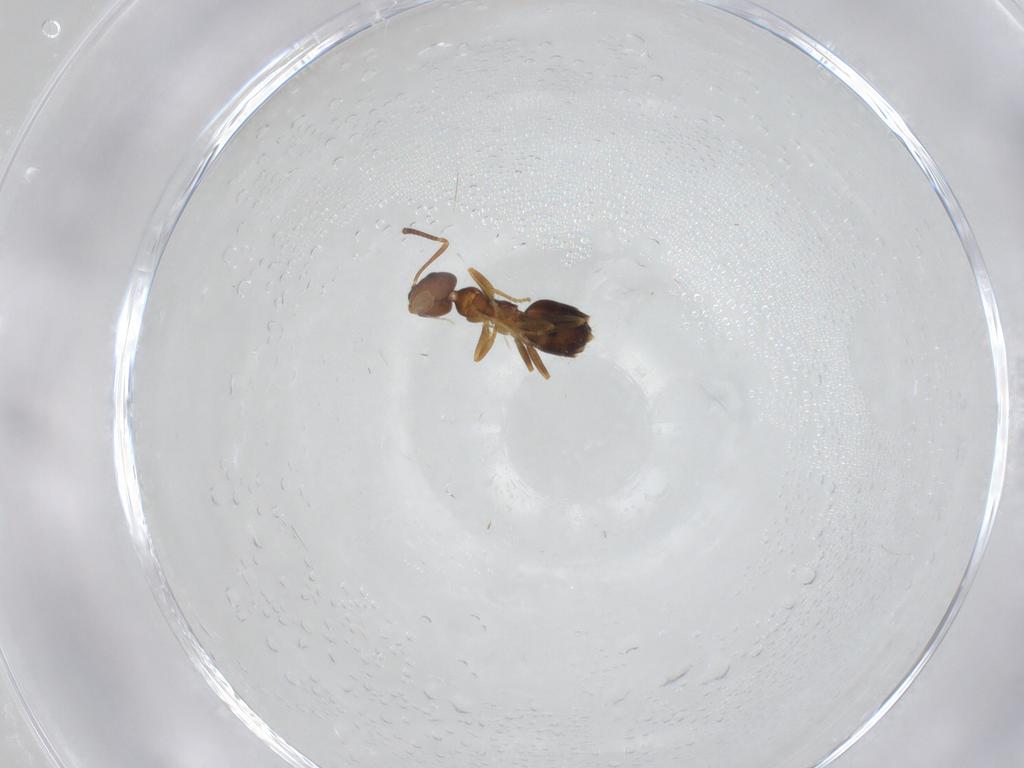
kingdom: Animalia
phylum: Arthropoda
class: Insecta
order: Hymenoptera
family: Formicidae
